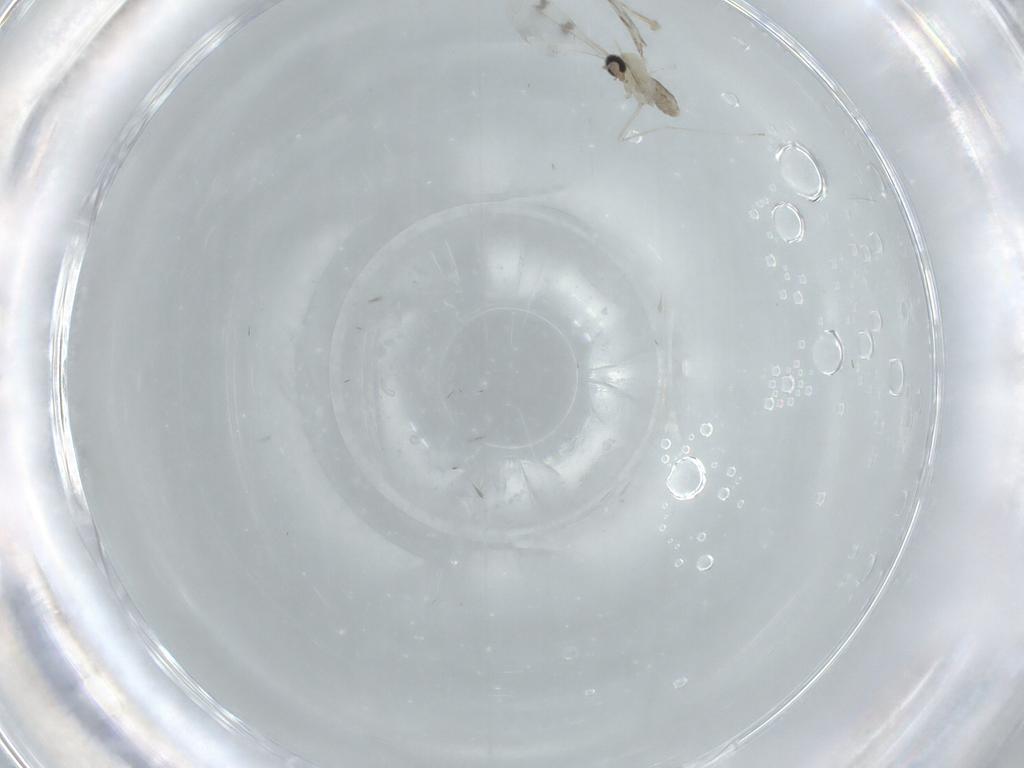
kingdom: Animalia
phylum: Arthropoda
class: Insecta
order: Diptera
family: Cecidomyiidae
